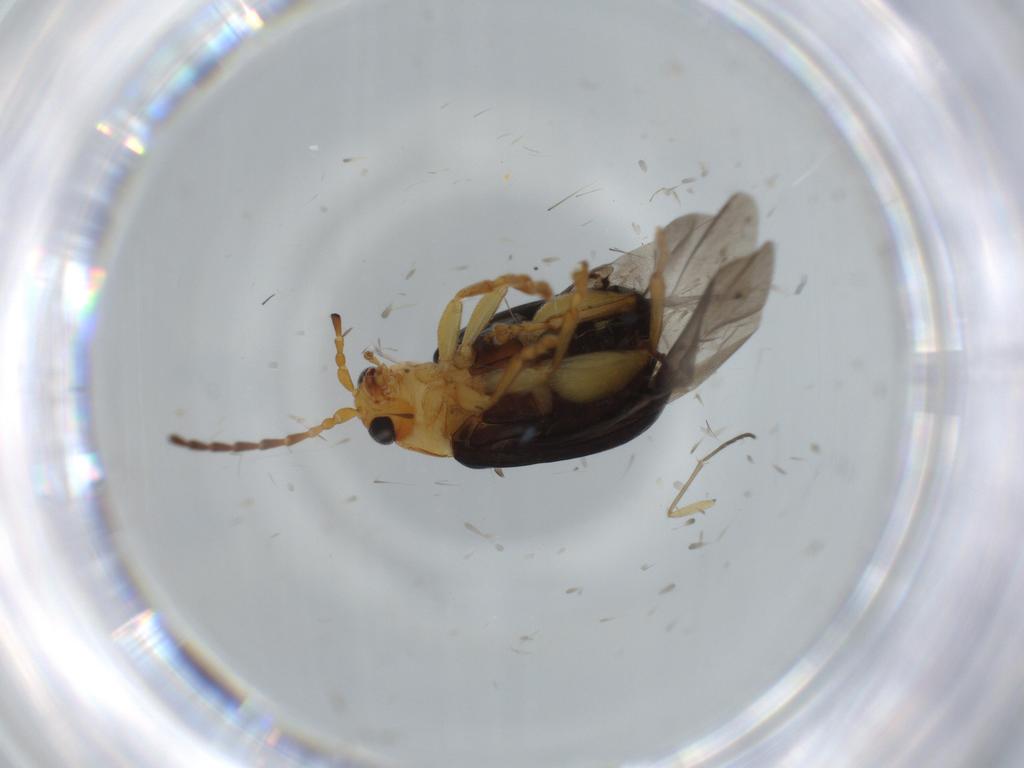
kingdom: Animalia
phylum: Arthropoda
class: Insecta
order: Coleoptera
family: Chrysomelidae
